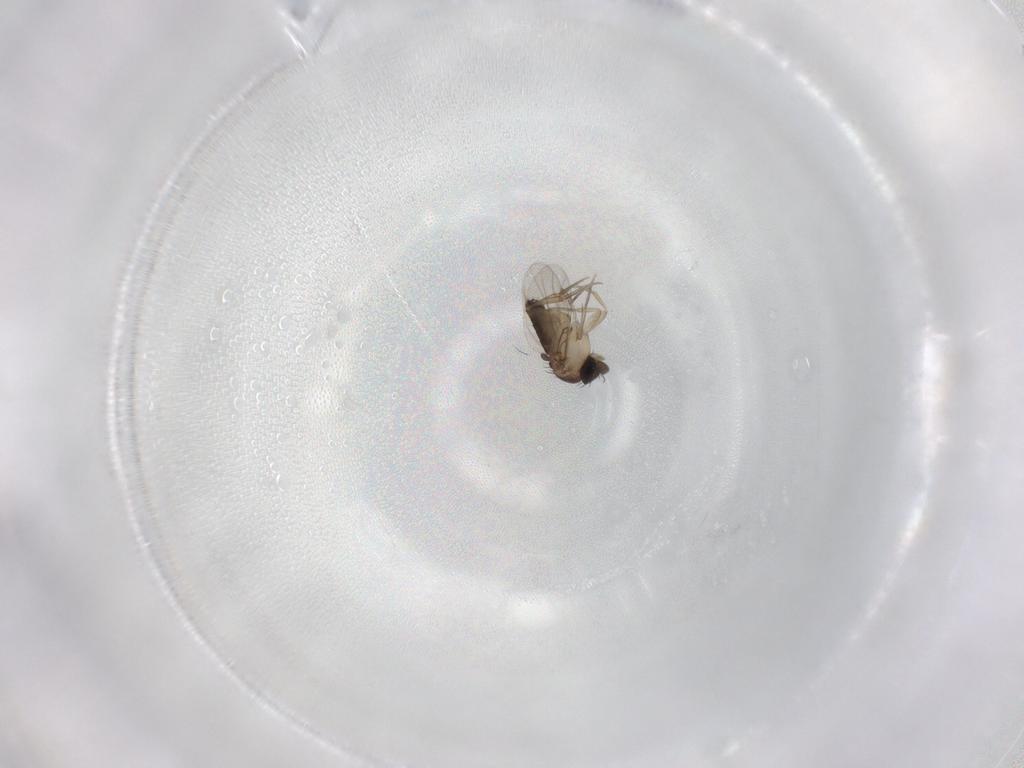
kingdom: Animalia
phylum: Arthropoda
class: Insecta
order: Diptera
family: Phoridae
